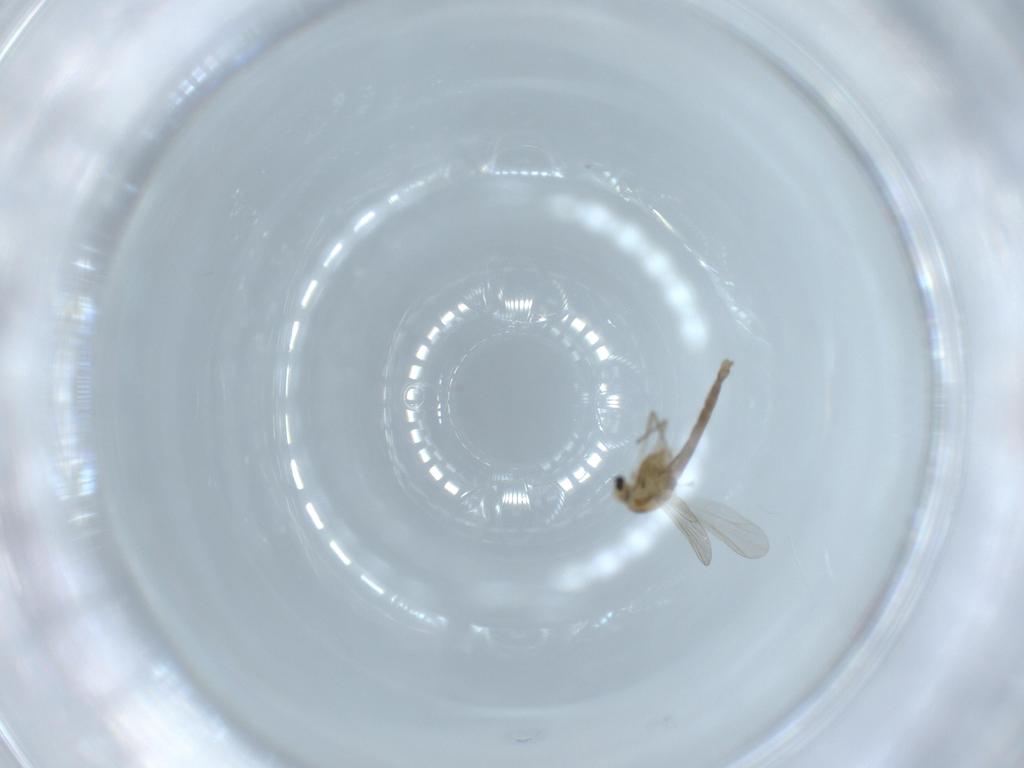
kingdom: Animalia
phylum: Arthropoda
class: Insecta
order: Diptera
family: Chironomidae
